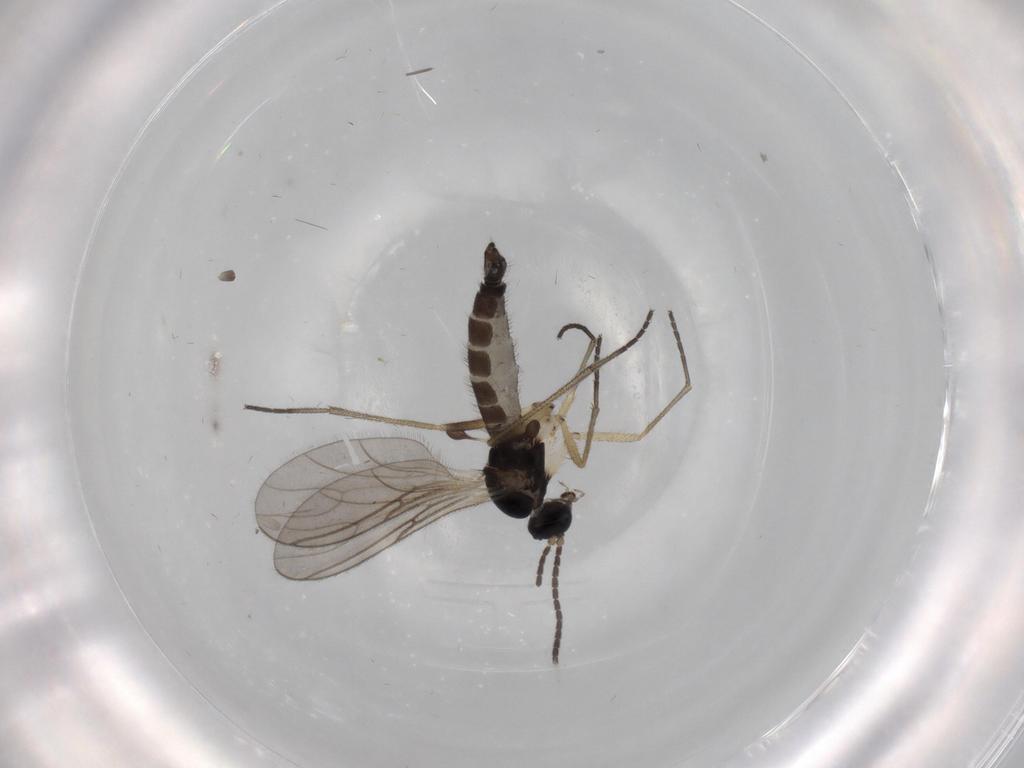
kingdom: Animalia
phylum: Arthropoda
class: Insecta
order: Diptera
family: Sciaridae
